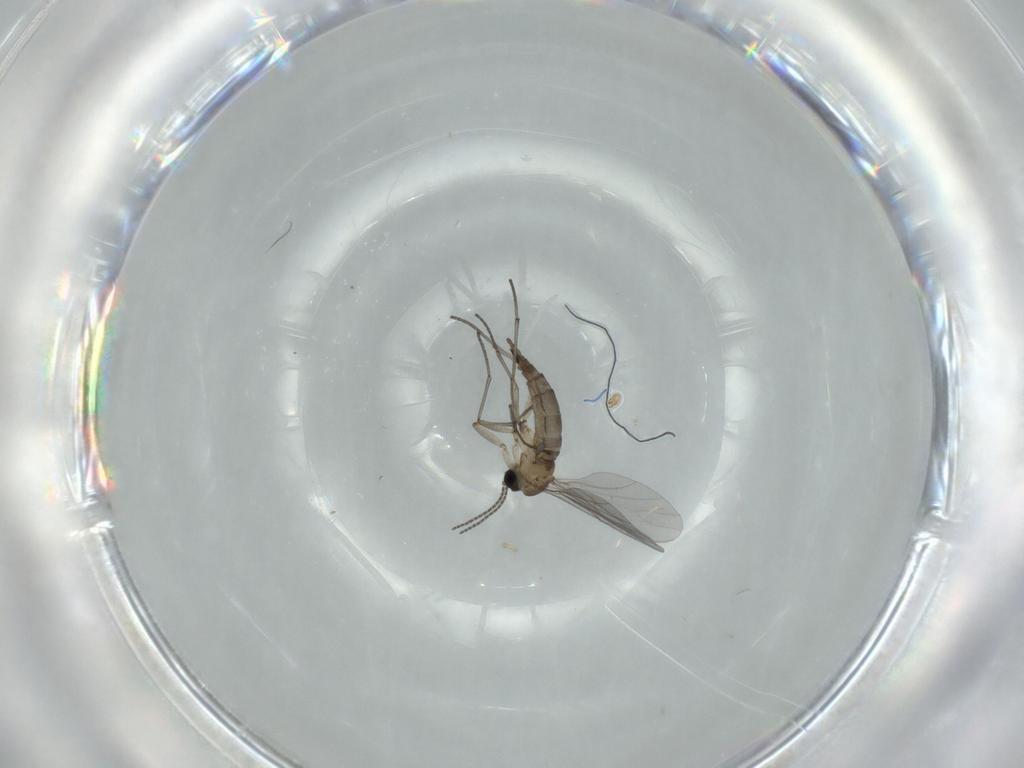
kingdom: Animalia
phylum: Arthropoda
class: Insecta
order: Diptera
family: Sciaridae
